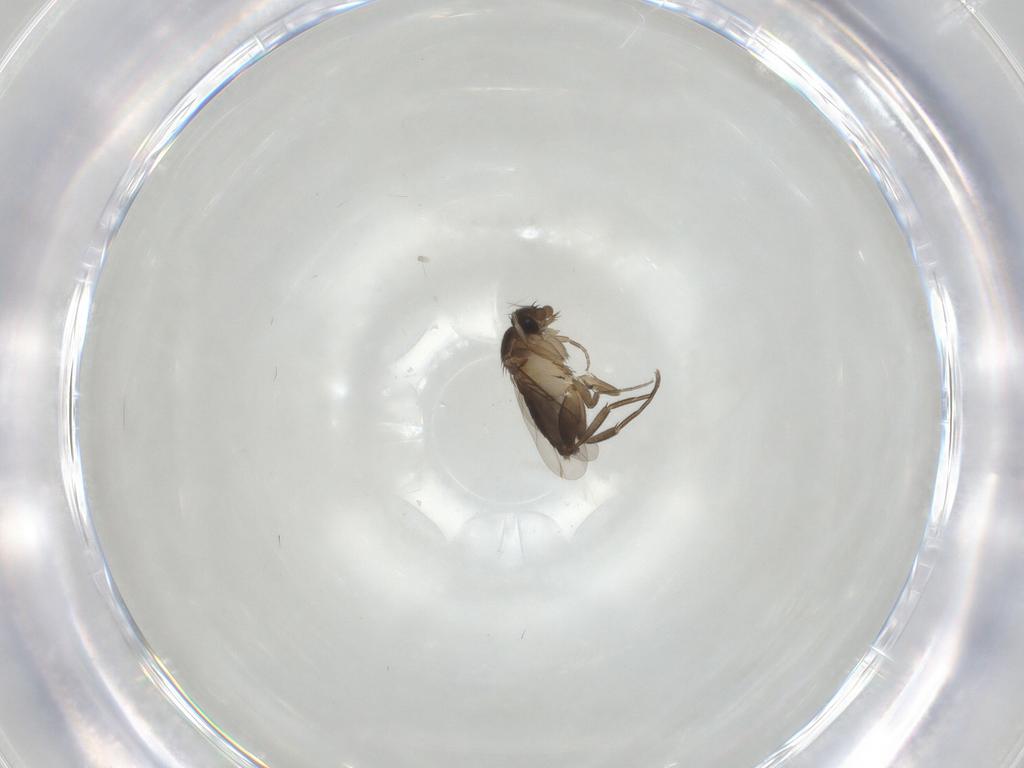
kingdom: Animalia
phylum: Arthropoda
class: Insecta
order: Diptera
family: Phoridae
